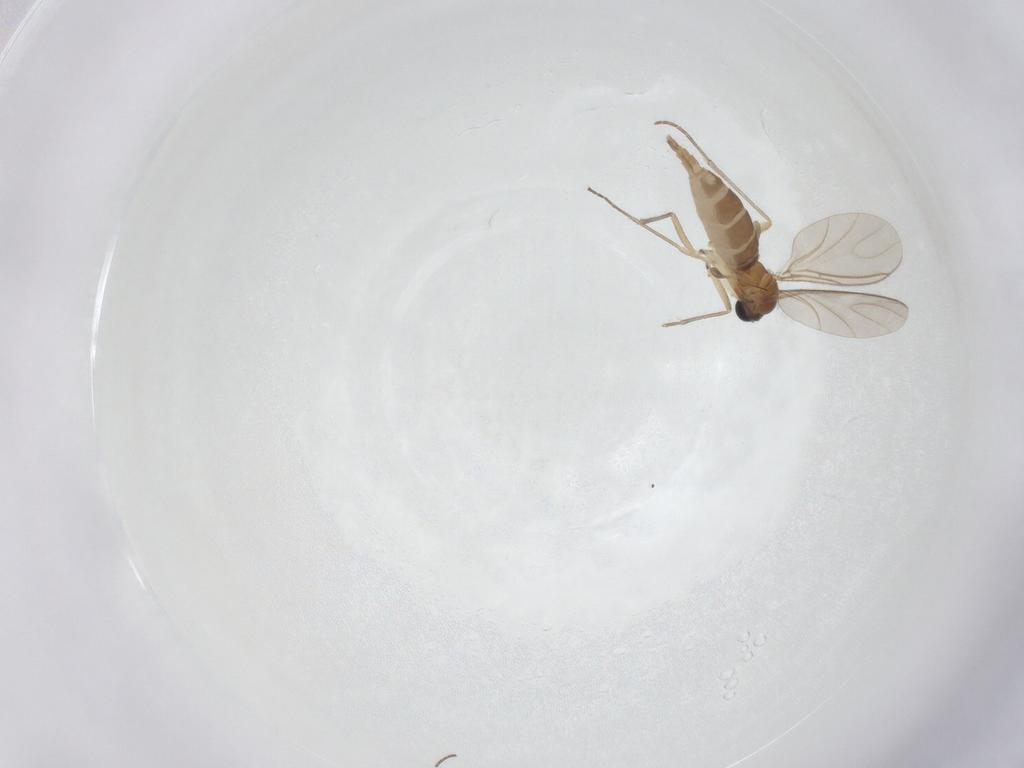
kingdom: Animalia
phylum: Arthropoda
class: Insecta
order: Diptera
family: Sciaridae
